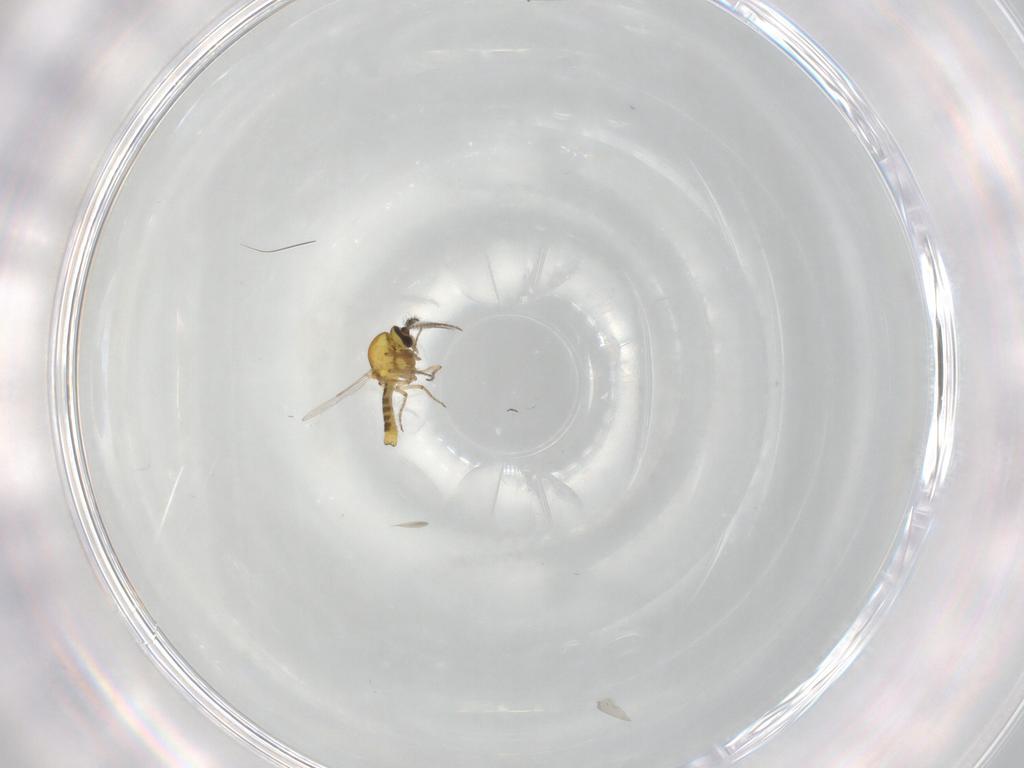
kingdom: Animalia
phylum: Arthropoda
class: Insecta
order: Diptera
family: Ceratopogonidae
